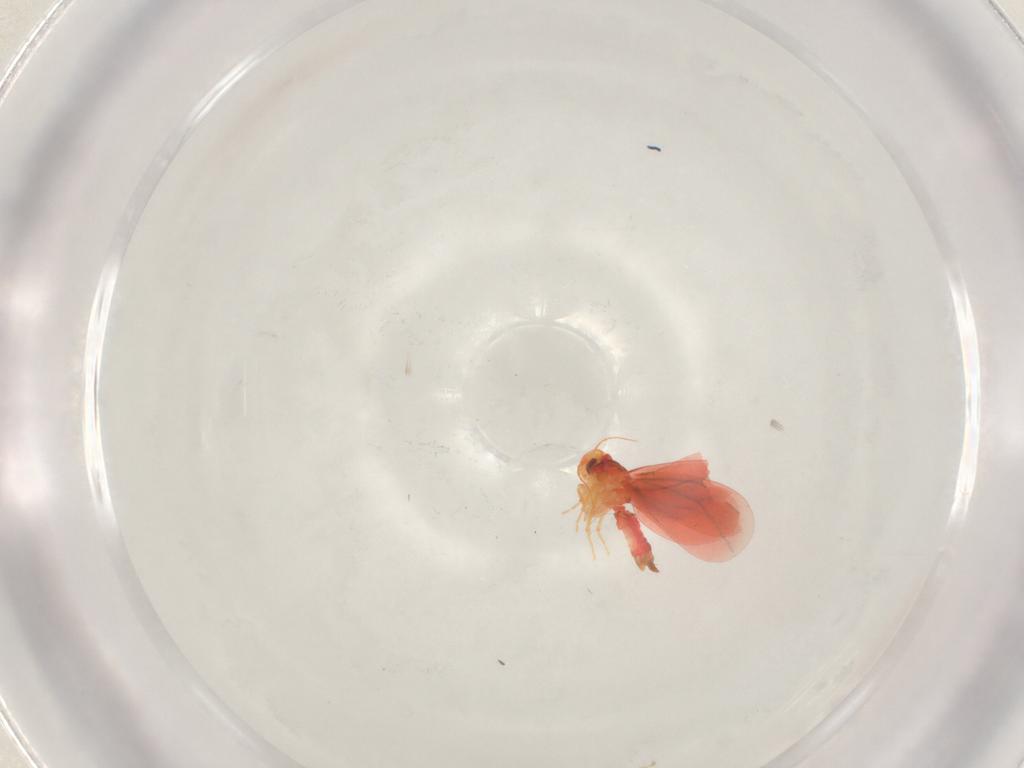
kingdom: Animalia
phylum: Arthropoda
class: Insecta
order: Hemiptera
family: Aleyrodidae
